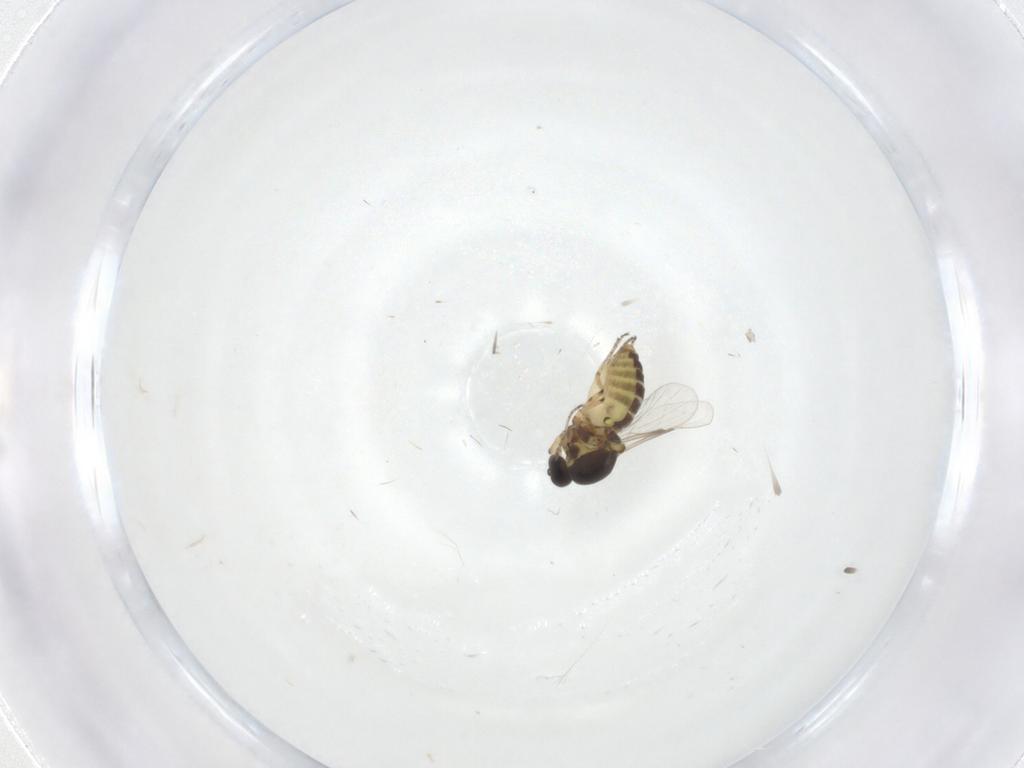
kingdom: Animalia
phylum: Arthropoda
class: Insecta
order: Diptera
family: Ceratopogonidae
